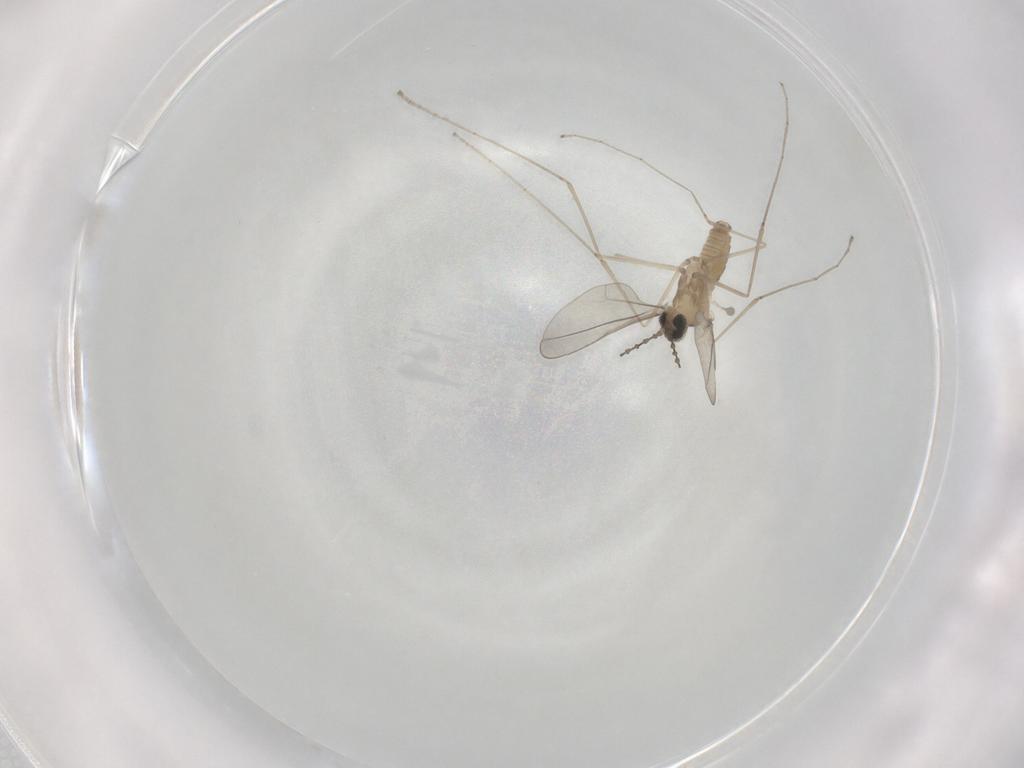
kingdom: Animalia
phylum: Arthropoda
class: Insecta
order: Diptera
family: Cecidomyiidae
